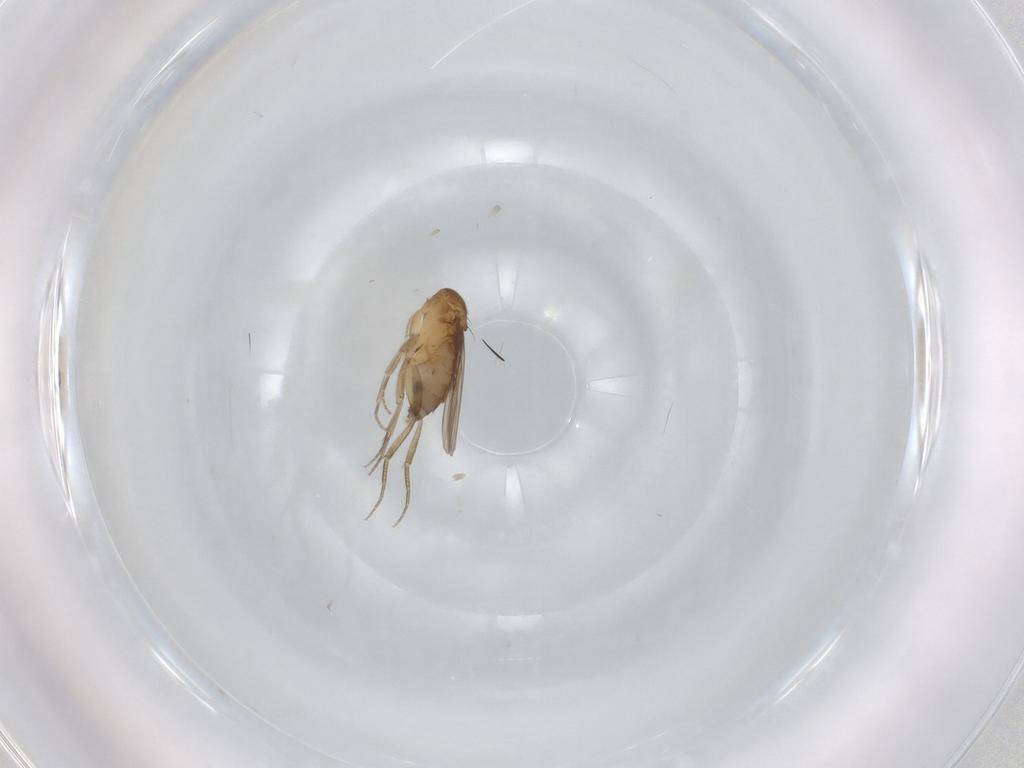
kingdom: Animalia
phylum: Arthropoda
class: Insecta
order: Diptera
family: Phoridae
